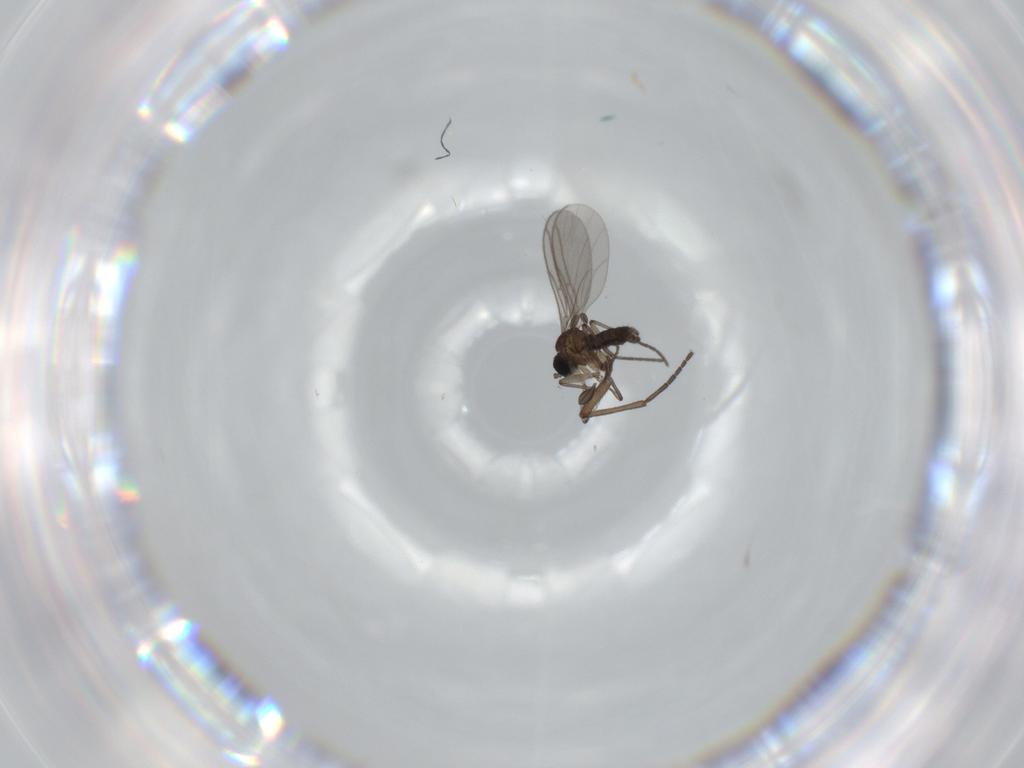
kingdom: Animalia
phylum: Arthropoda
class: Insecta
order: Diptera
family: Sciaridae
